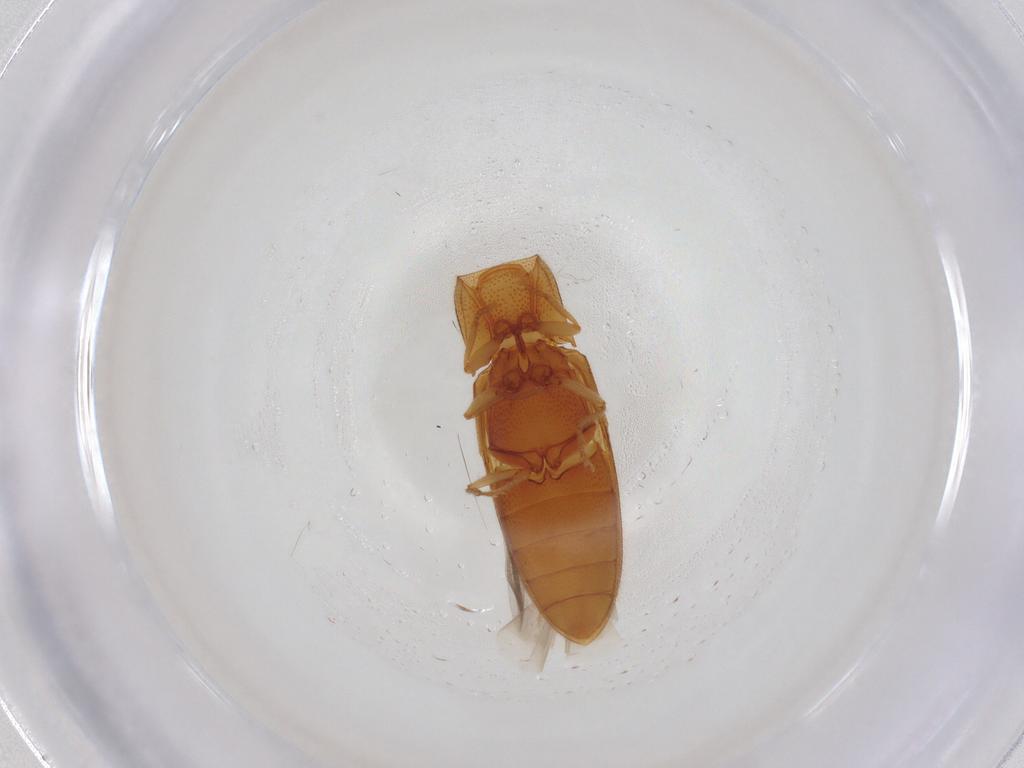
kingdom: Animalia
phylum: Arthropoda
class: Insecta
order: Coleoptera
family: Elateridae
